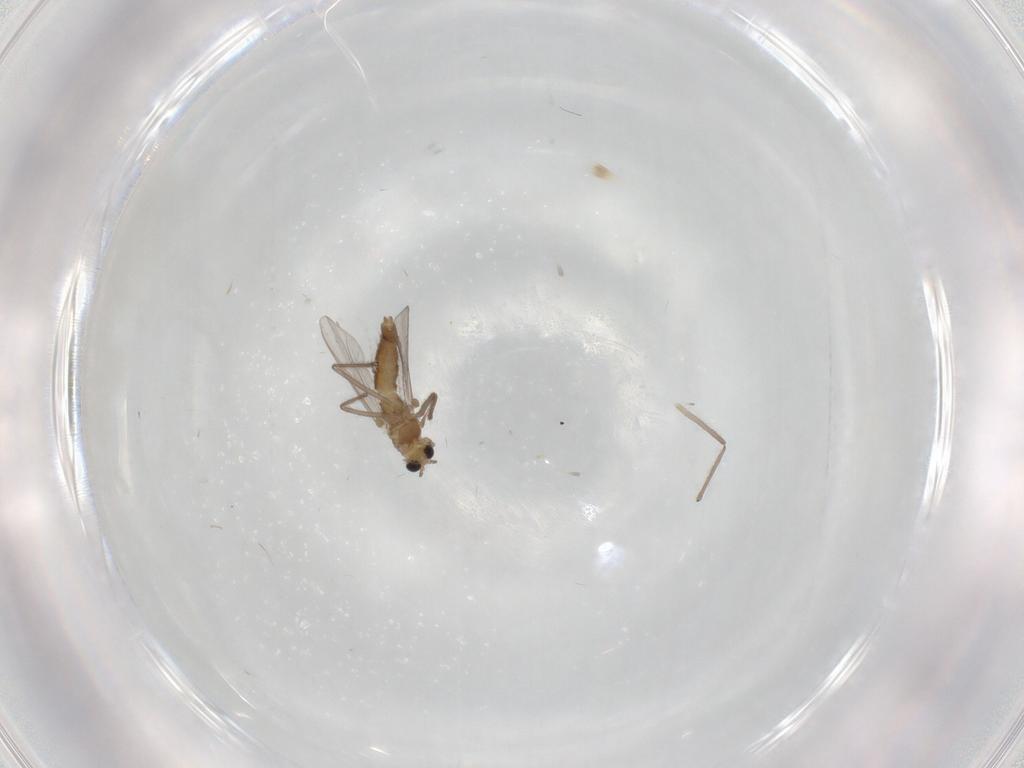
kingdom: Animalia
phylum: Arthropoda
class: Insecta
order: Diptera
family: Chironomidae
